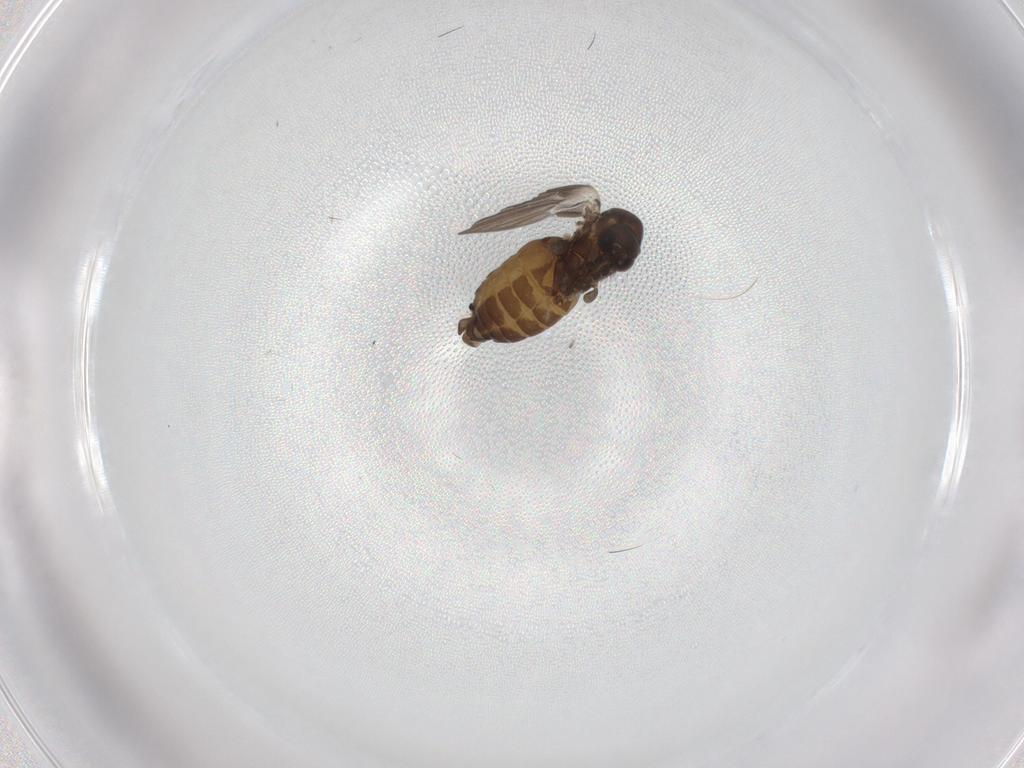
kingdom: Animalia
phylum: Arthropoda
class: Insecta
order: Diptera
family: Psychodidae
